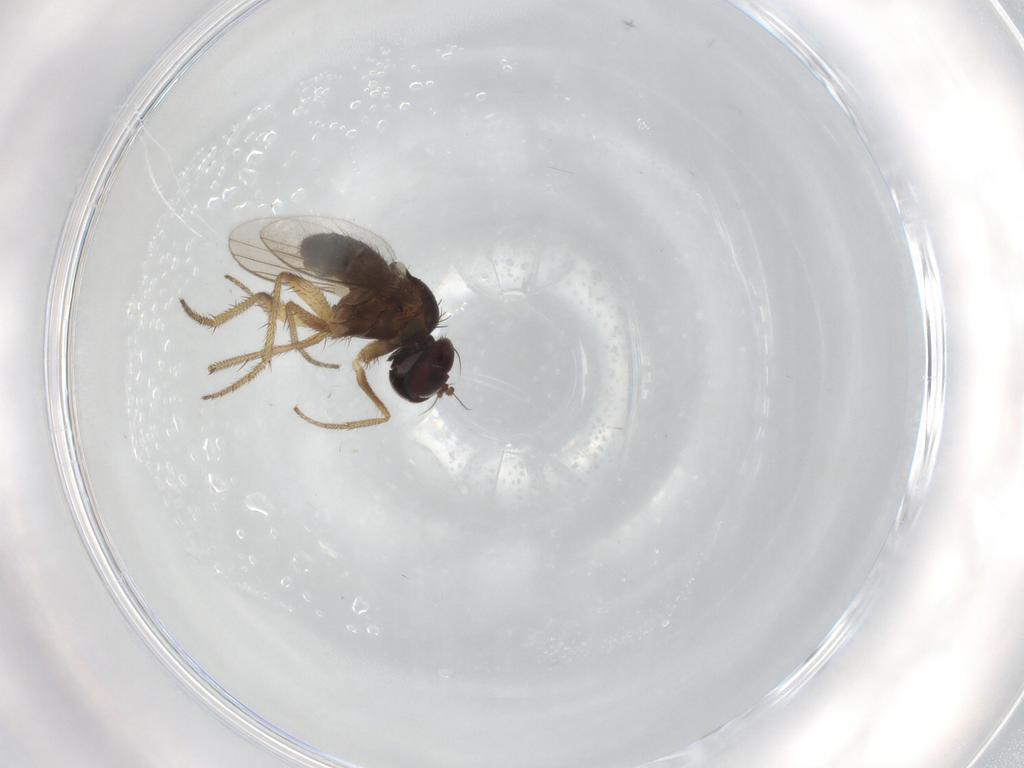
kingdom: Animalia
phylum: Arthropoda
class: Insecta
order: Diptera
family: Dolichopodidae
